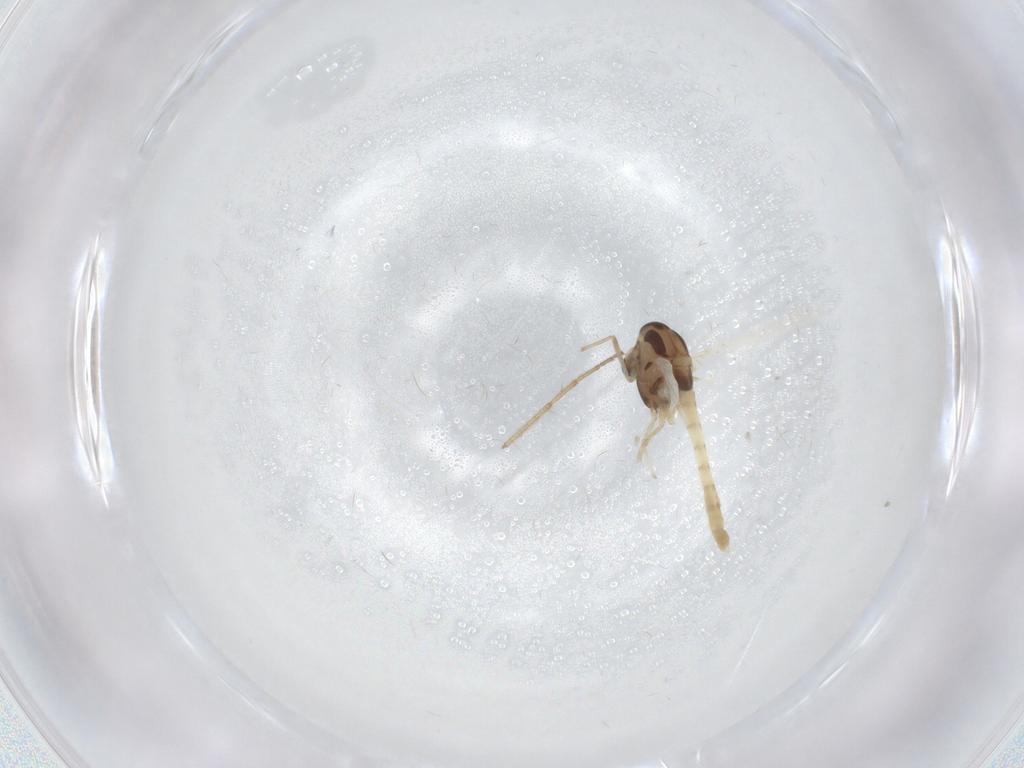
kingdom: Animalia
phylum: Arthropoda
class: Insecta
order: Diptera
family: Chironomidae
